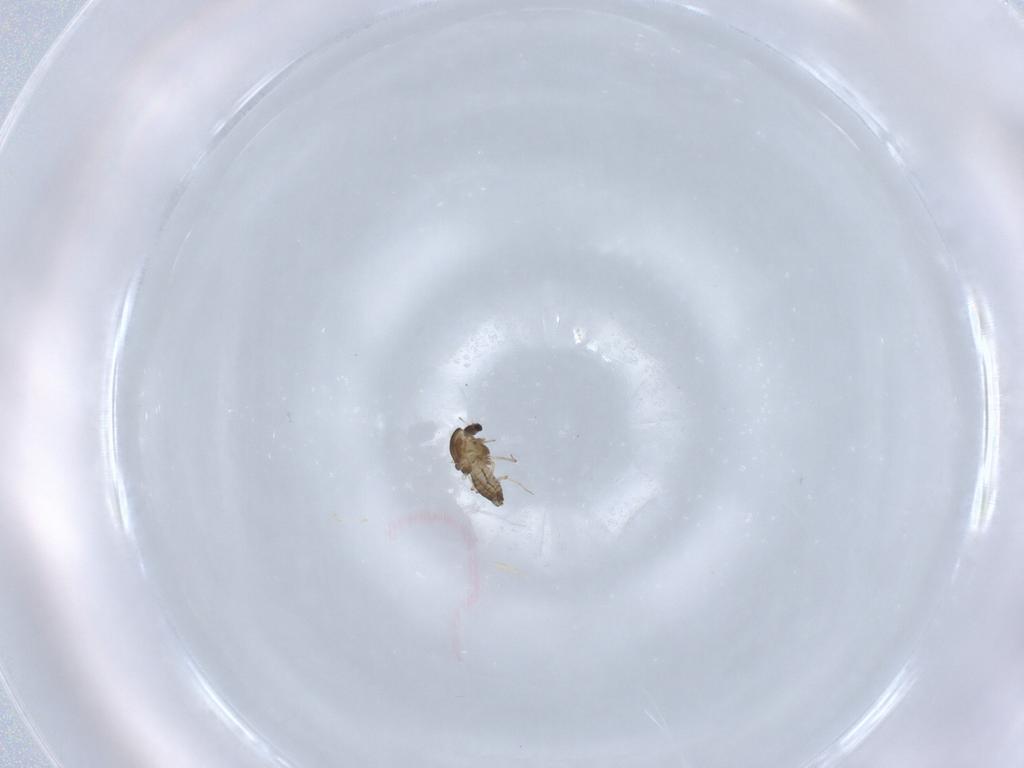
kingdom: Animalia
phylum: Arthropoda
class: Insecta
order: Diptera
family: Chironomidae
